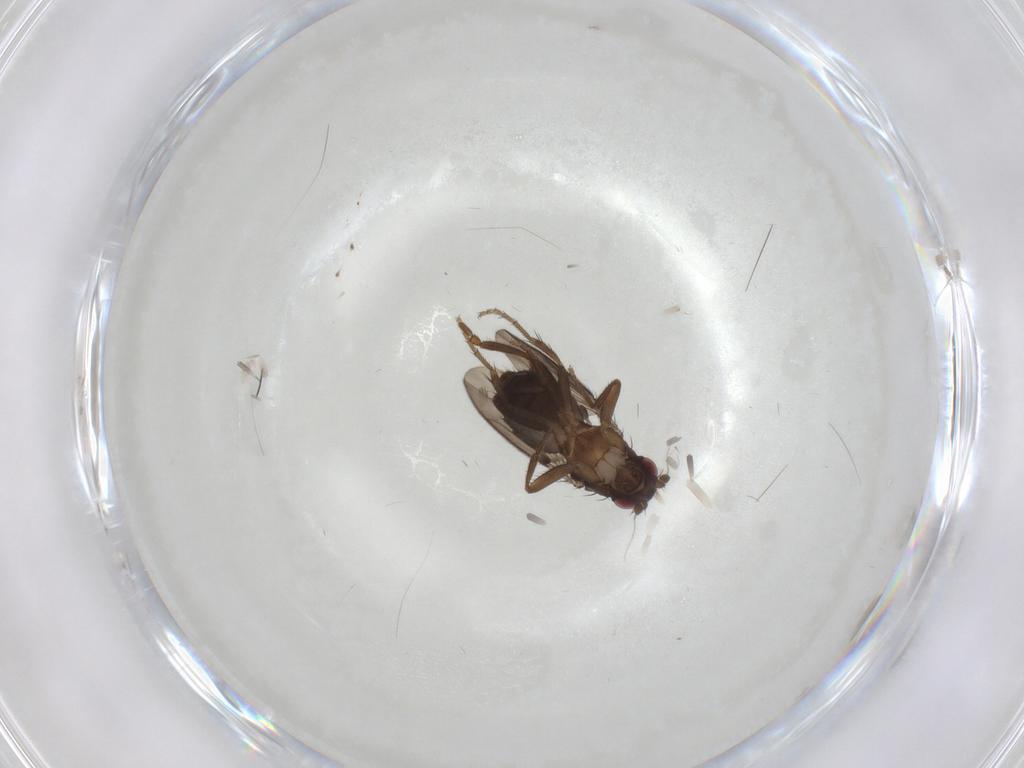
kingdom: Animalia
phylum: Arthropoda
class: Insecta
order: Diptera
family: Sphaeroceridae
